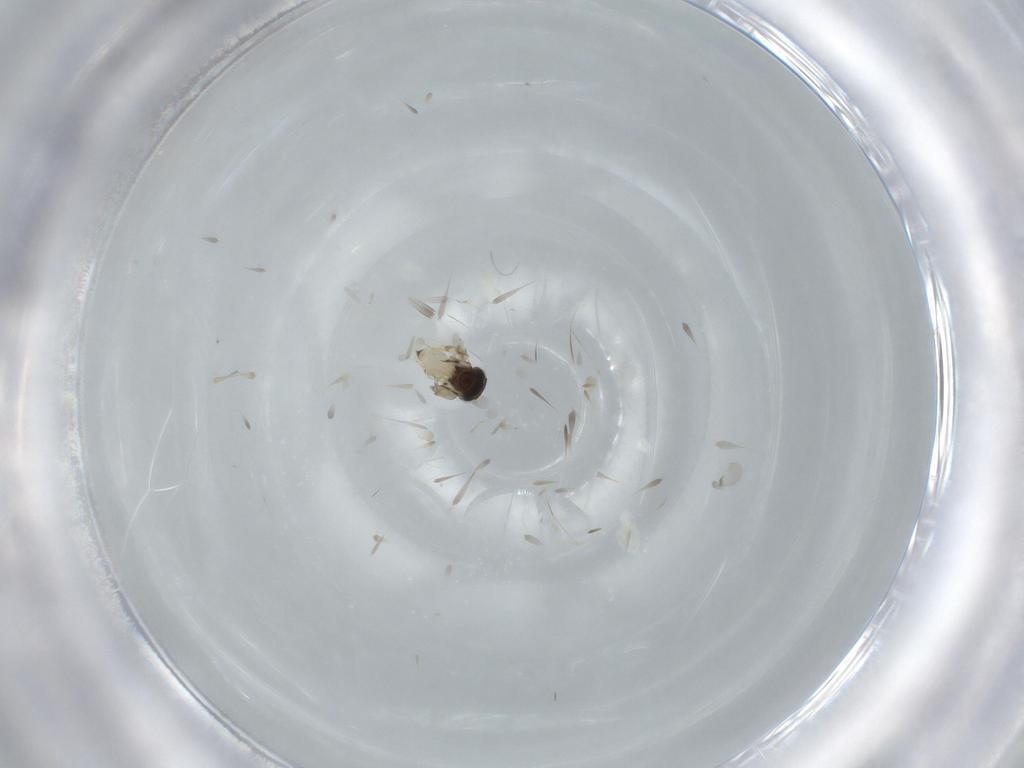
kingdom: Animalia
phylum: Arthropoda
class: Insecta
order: Hymenoptera
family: Scelionidae
